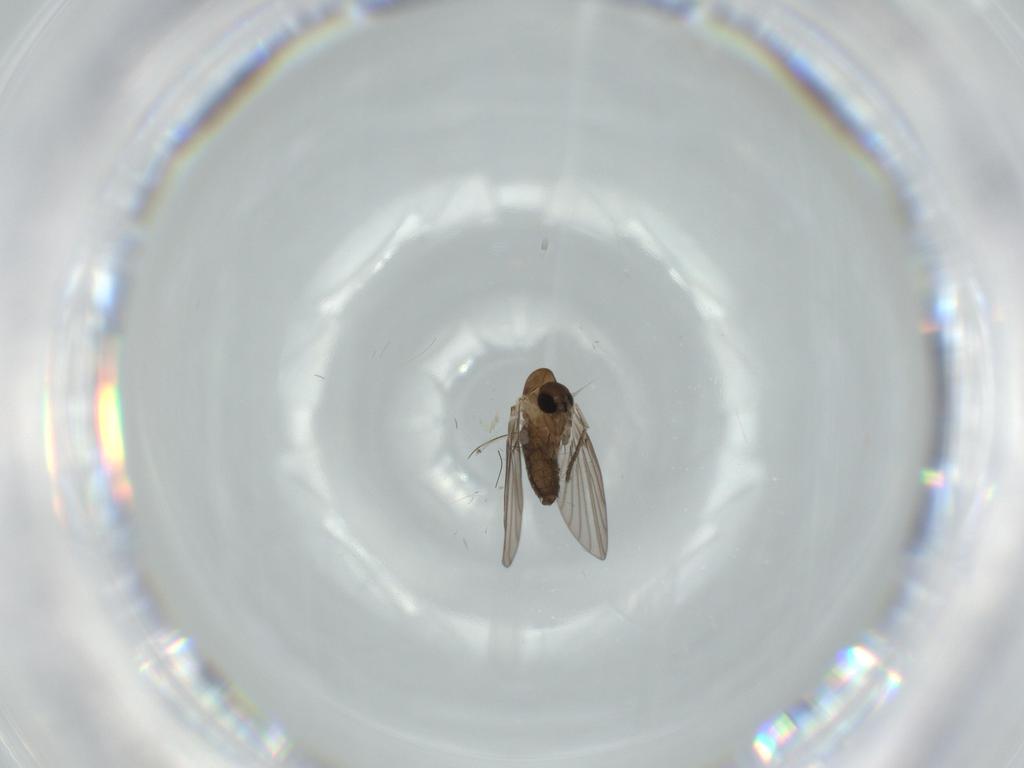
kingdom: Animalia
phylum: Arthropoda
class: Insecta
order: Diptera
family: Psychodidae
